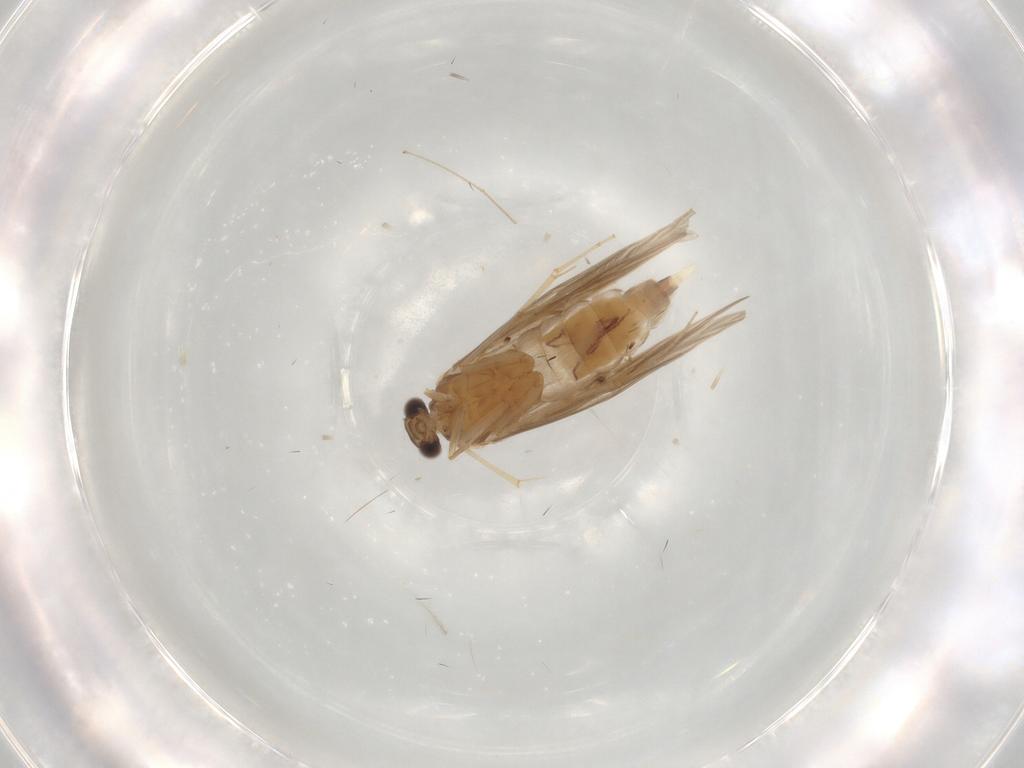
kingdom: Animalia
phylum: Arthropoda
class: Insecta
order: Trichoptera
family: Hydroptilidae
